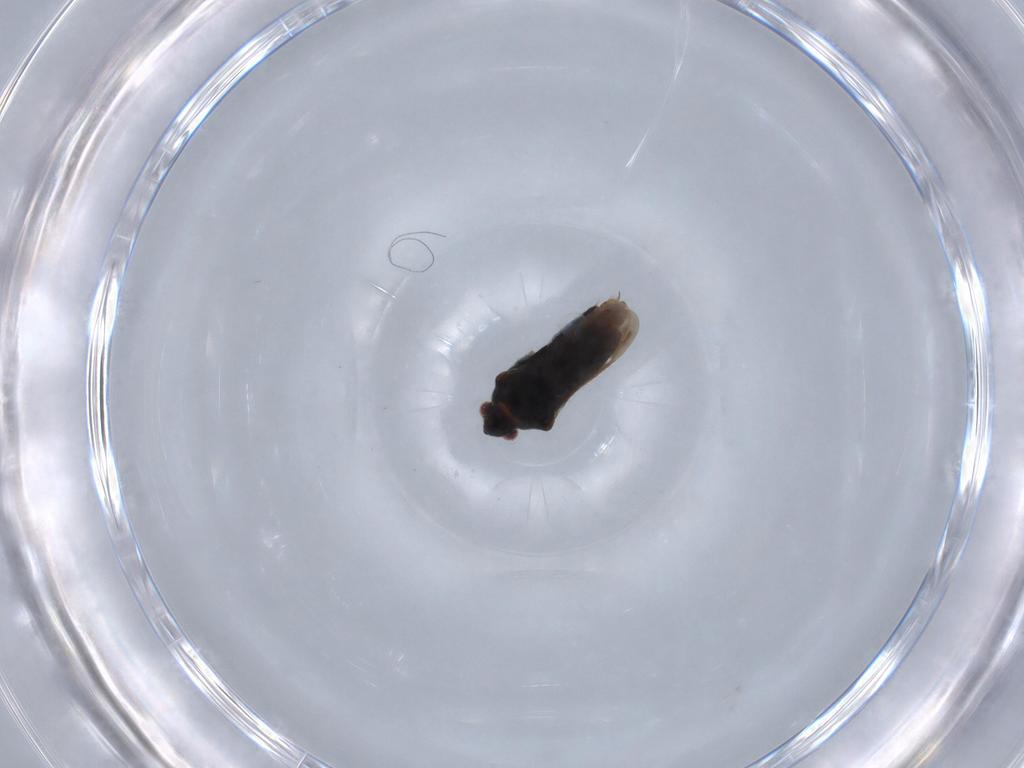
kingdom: Animalia
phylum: Arthropoda
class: Insecta
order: Hemiptera
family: Veliidae
